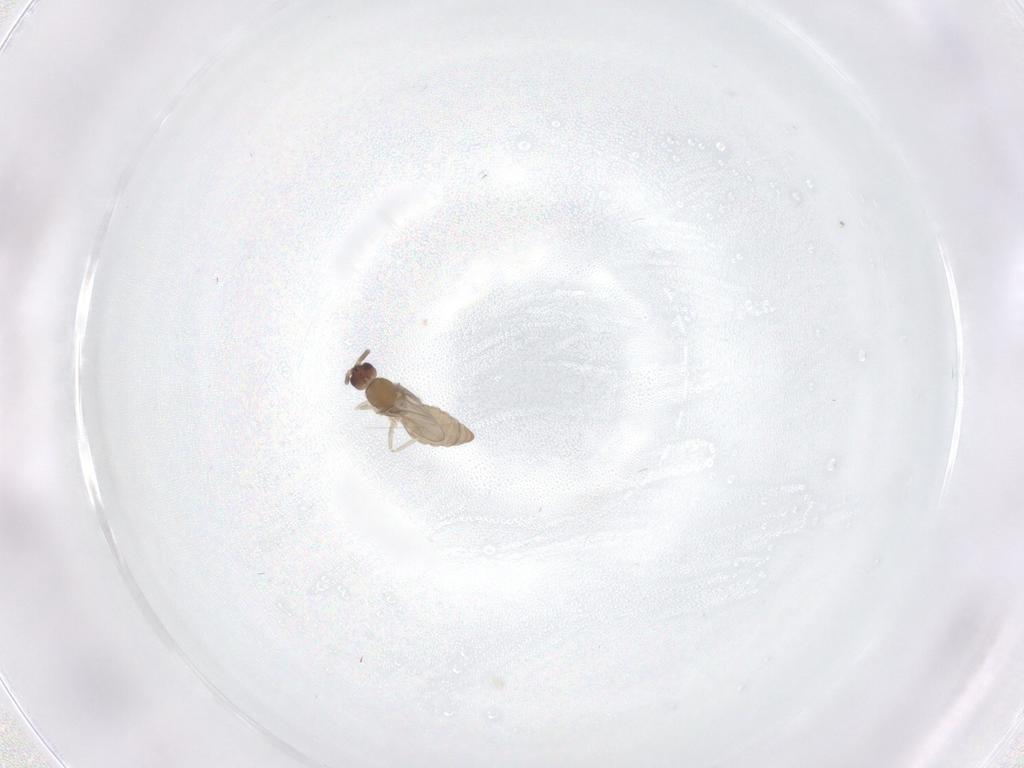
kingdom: Animalia
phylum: Arthropoda
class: Insecta
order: Diptera
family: Cecidomyiidae
